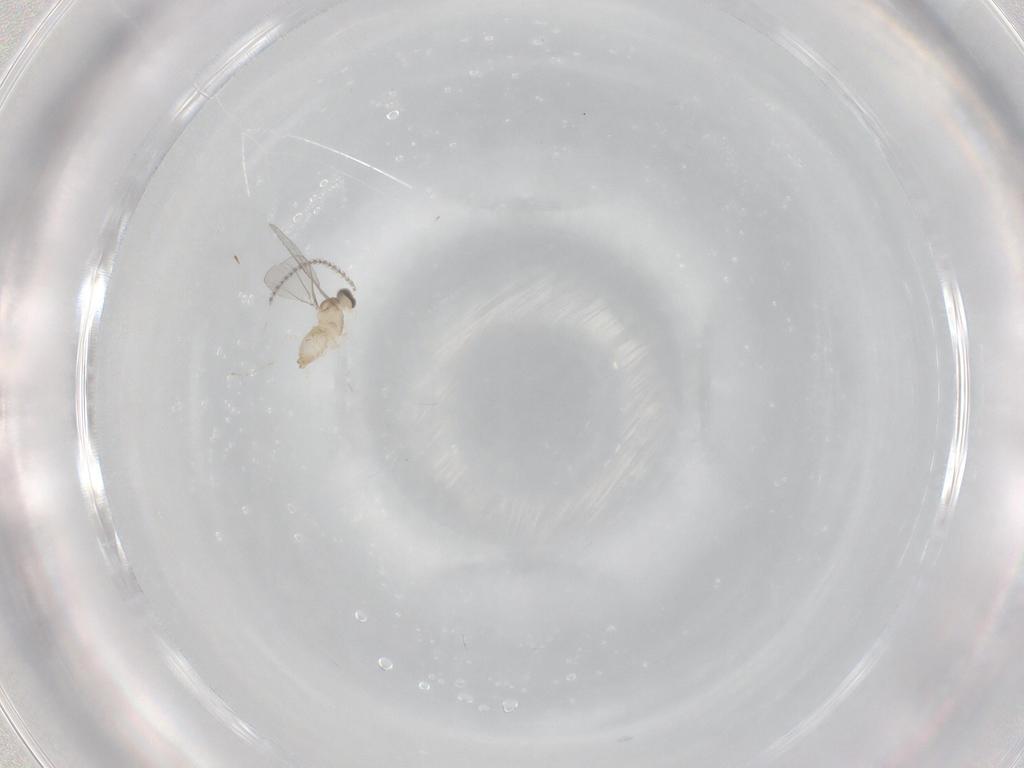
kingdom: Animalia
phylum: Arthropoda
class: Insecta
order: Diptera
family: Cecidomyiidae
